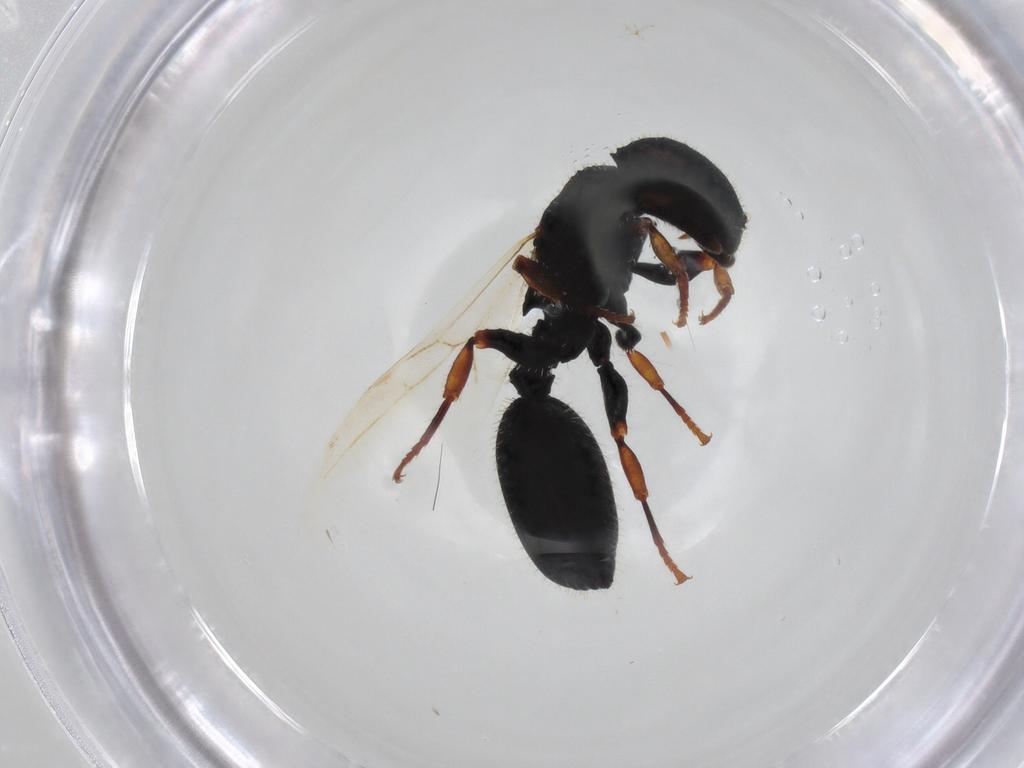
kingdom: Animalia
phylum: Arthropoda
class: Insecta
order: Hymenoptera
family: Formicidae
